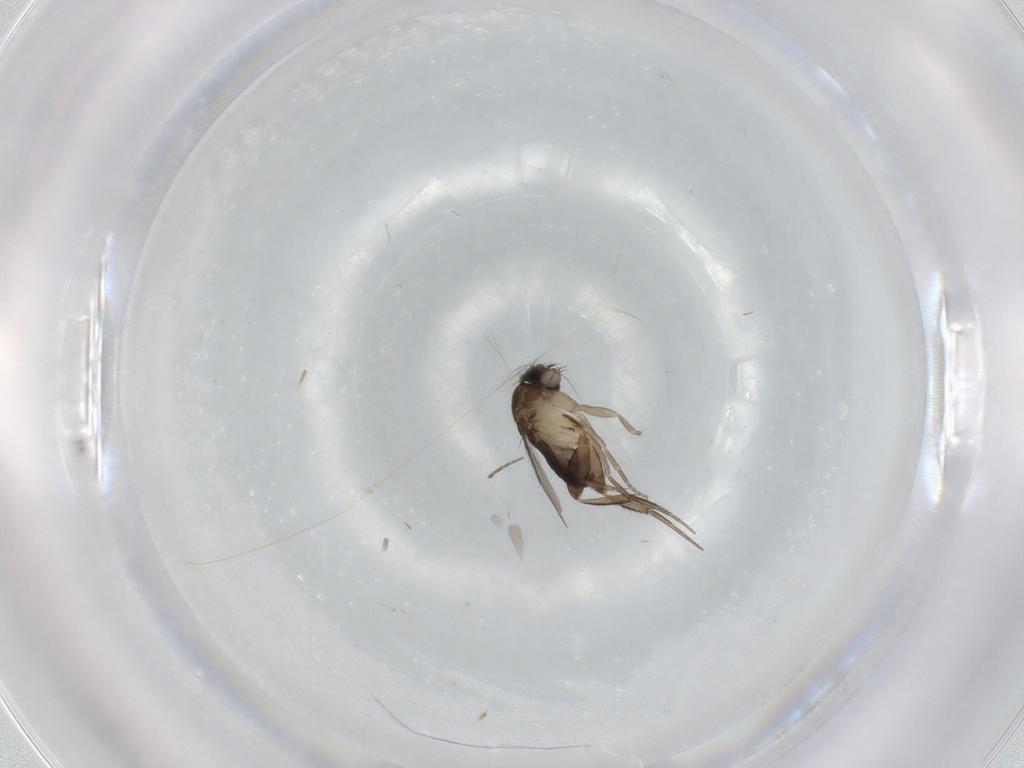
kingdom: Animalia
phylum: Arthropoda
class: Insecta
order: Diptera
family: Phoridae
